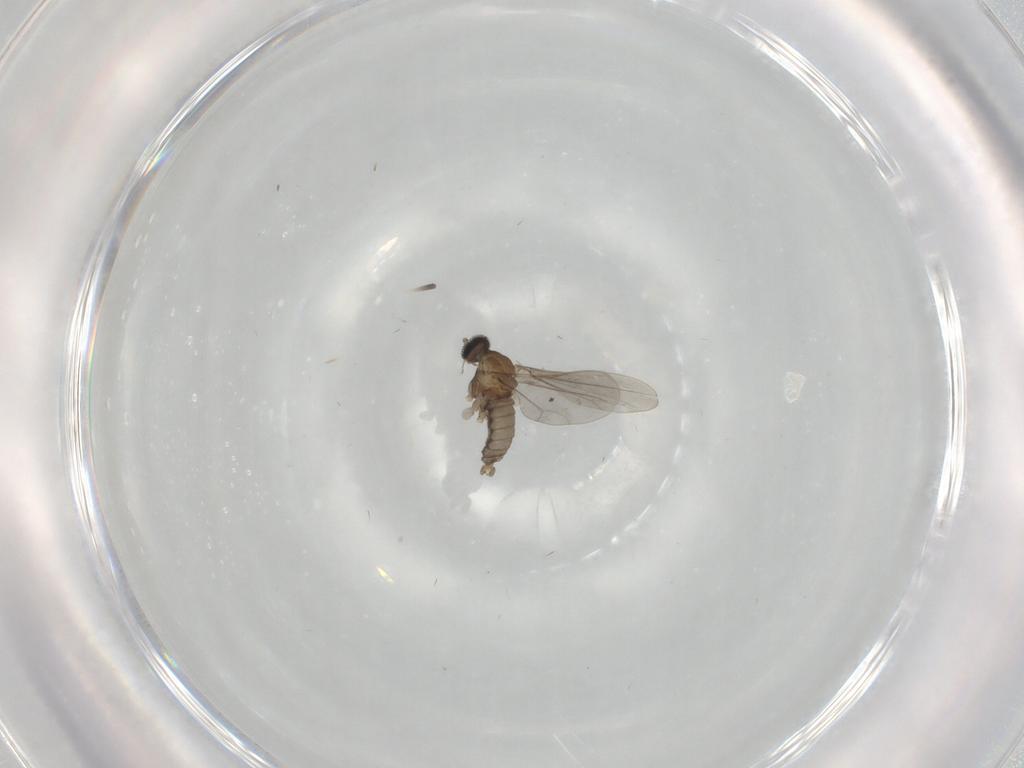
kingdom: Animalia
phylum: Arthropoda
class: Insecta
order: Diptera
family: Cecidomyiidae
